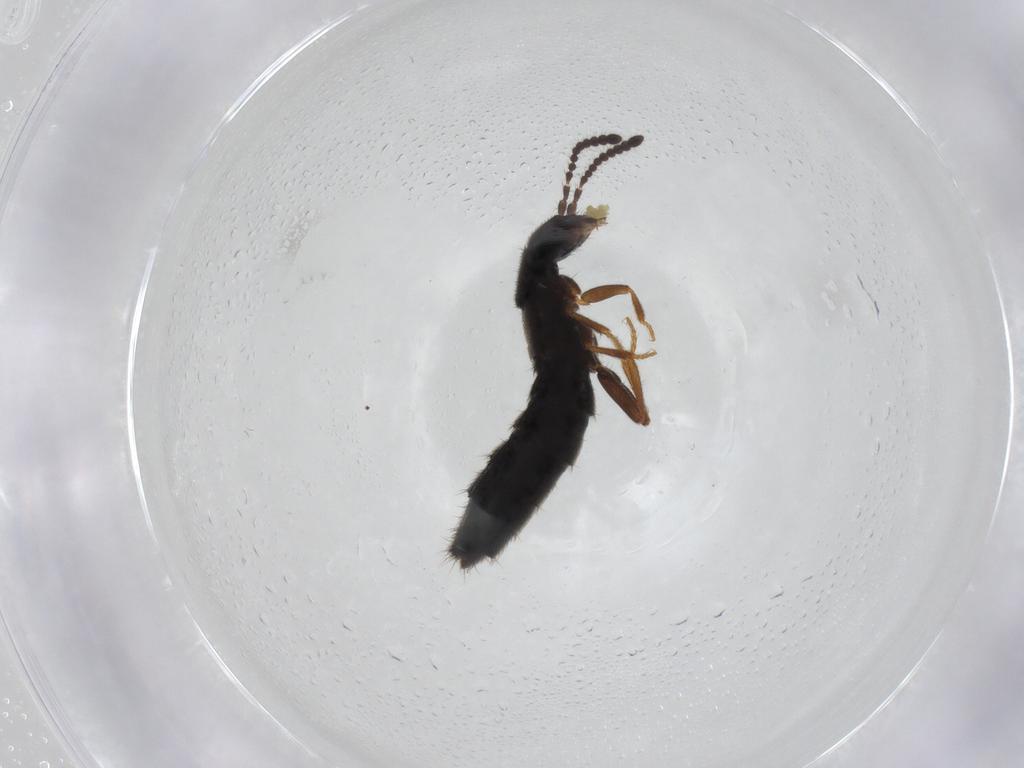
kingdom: Animalia
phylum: Arthropoda
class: Insecta
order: Coleoptera
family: Staphylinidae
